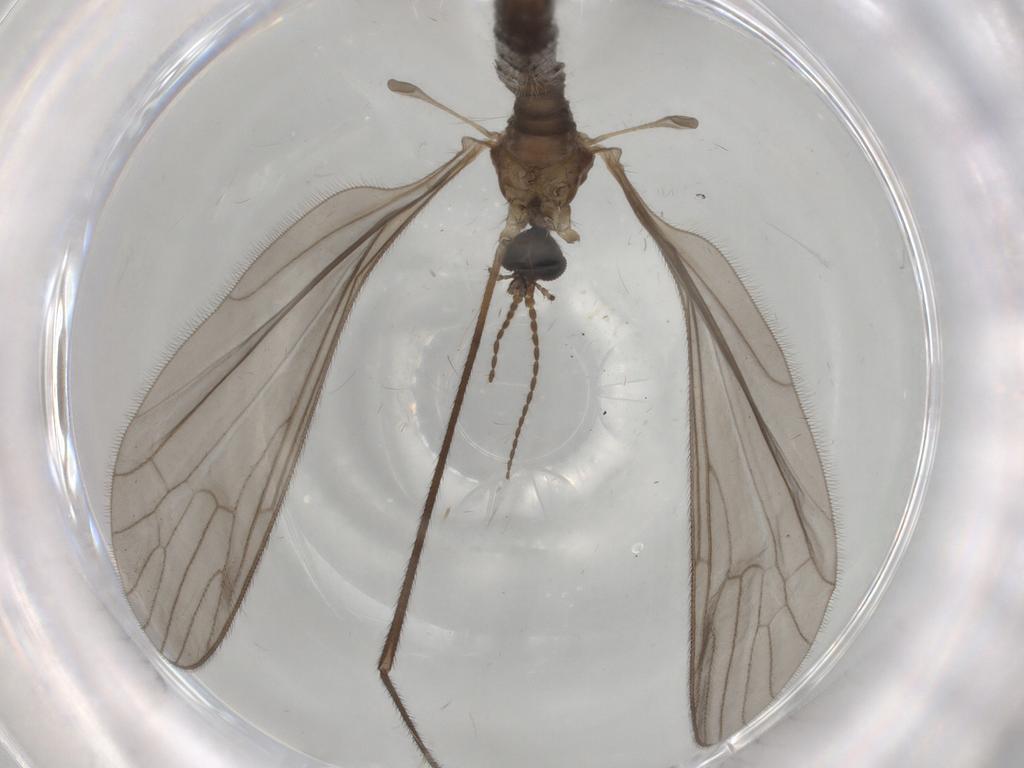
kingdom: Animalia
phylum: Arthropoda
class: Insecta
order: Diptera
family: Limoniidae
